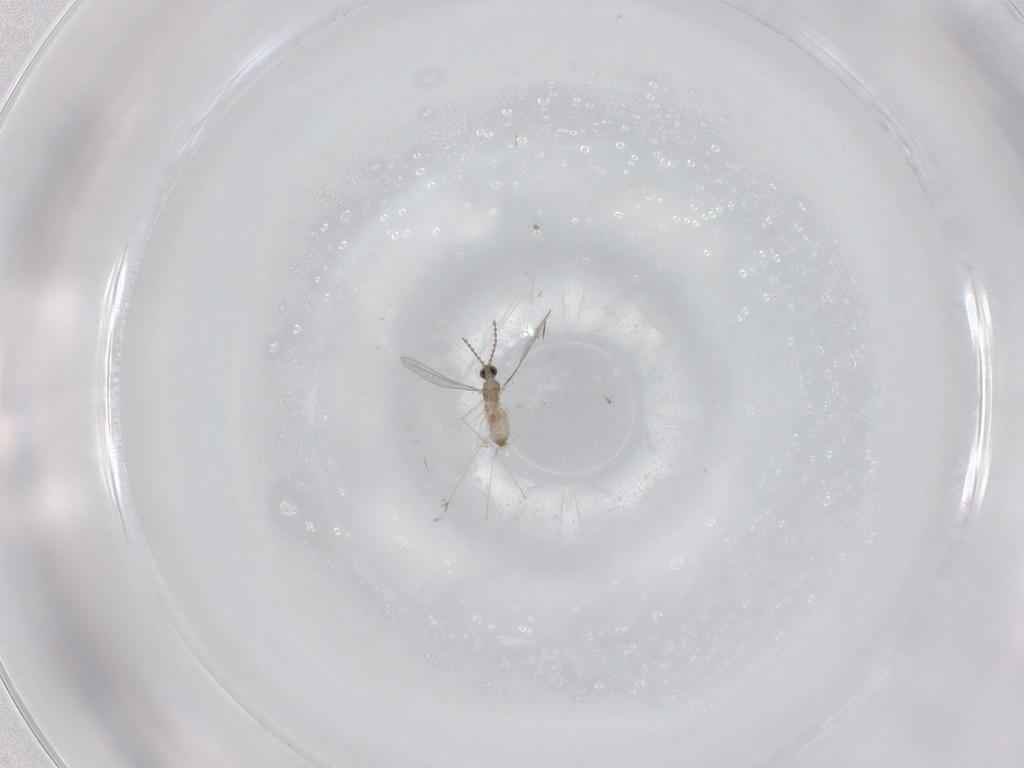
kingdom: Animalia
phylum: Arthropoda
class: Insecta
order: Diptera
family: Cecidomyiidae
